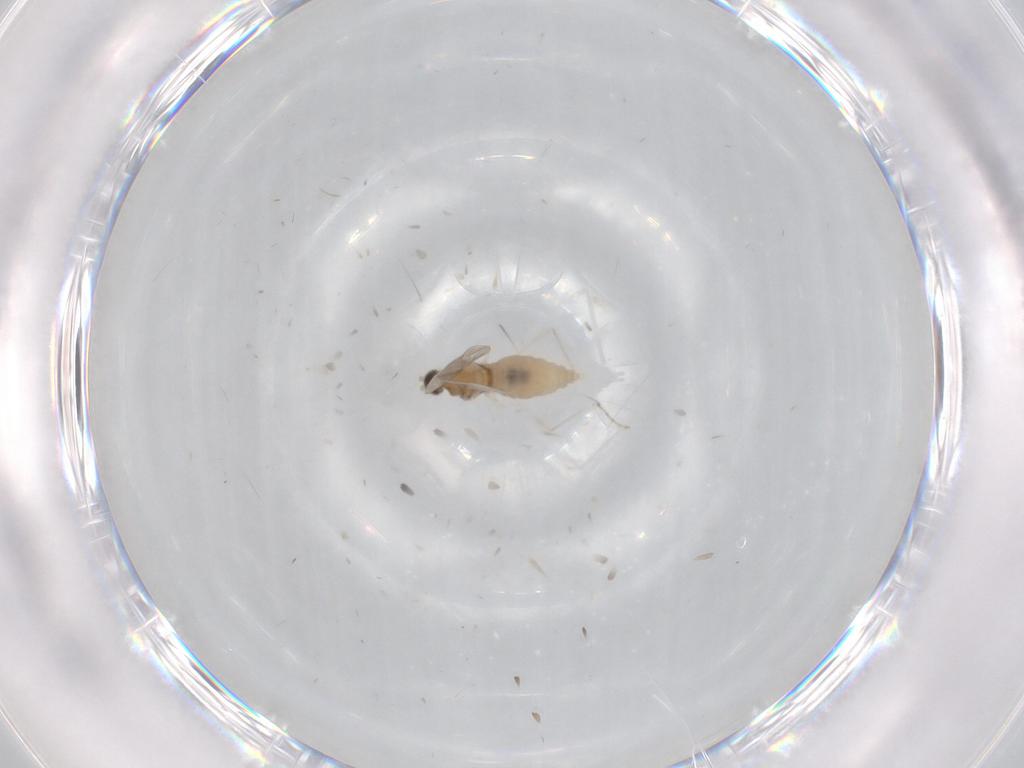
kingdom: Animalia
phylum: Arthropoda
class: Insecta
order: Diptera
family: Cecidomyiidae
